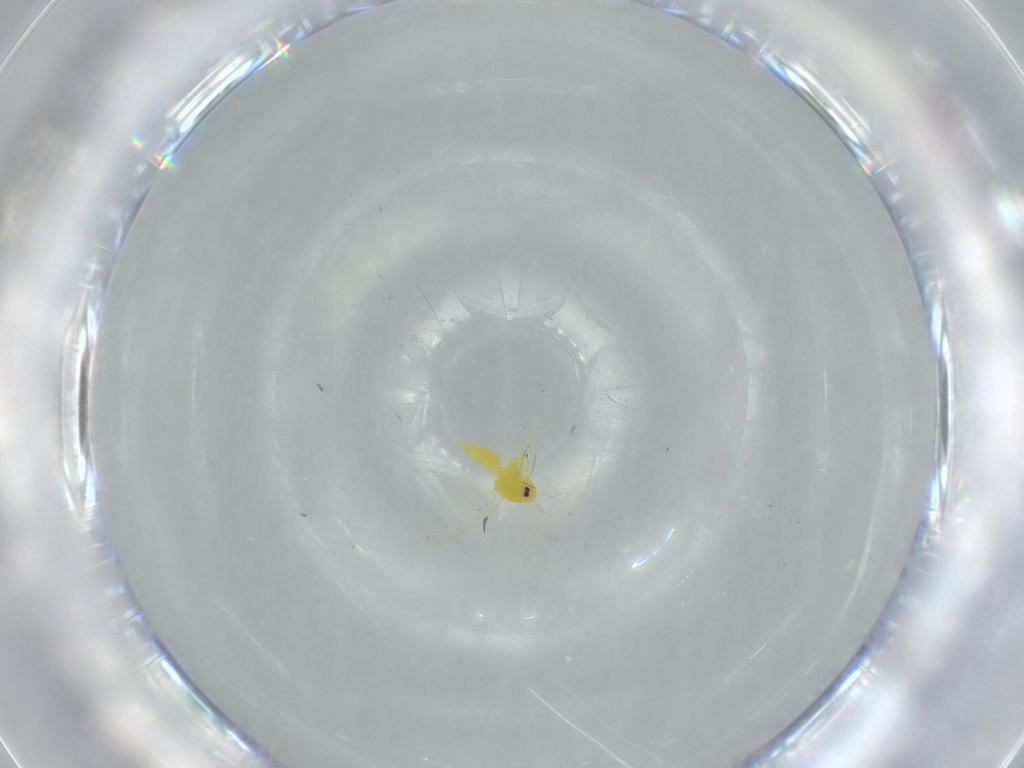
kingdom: Animalia
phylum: Arthropoda
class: Insecta
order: Hemiptera
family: Aleyrodidae
